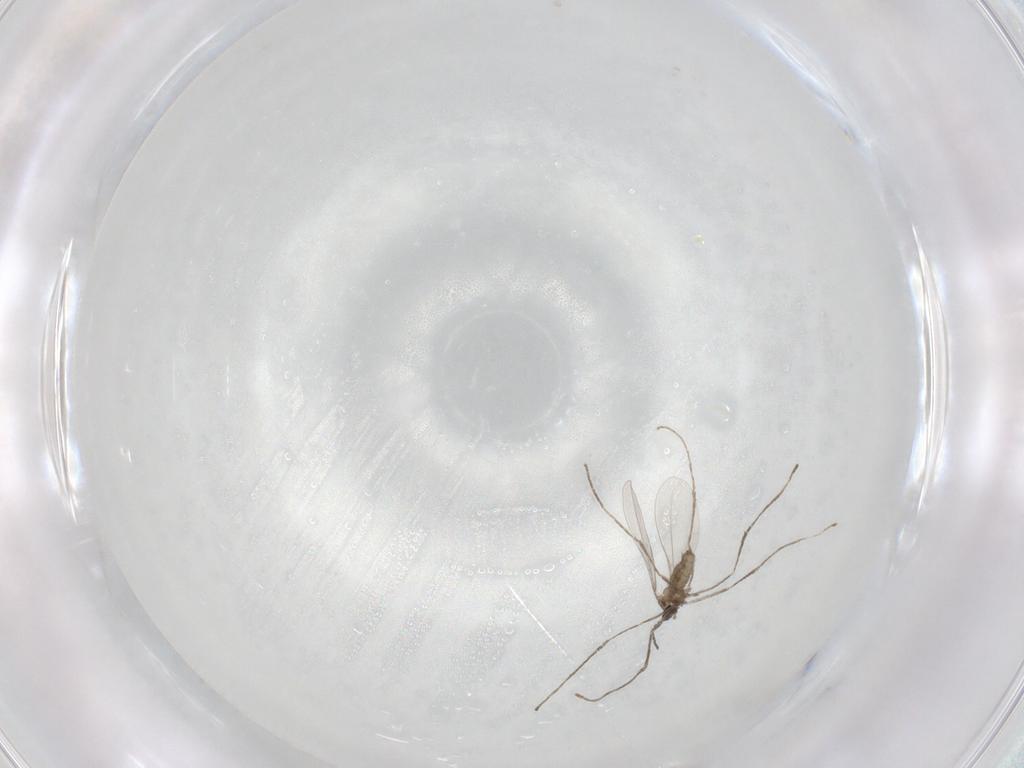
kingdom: Animalia
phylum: Arthropoda
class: Insecta
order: Diptera
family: Cecidomyiidae
